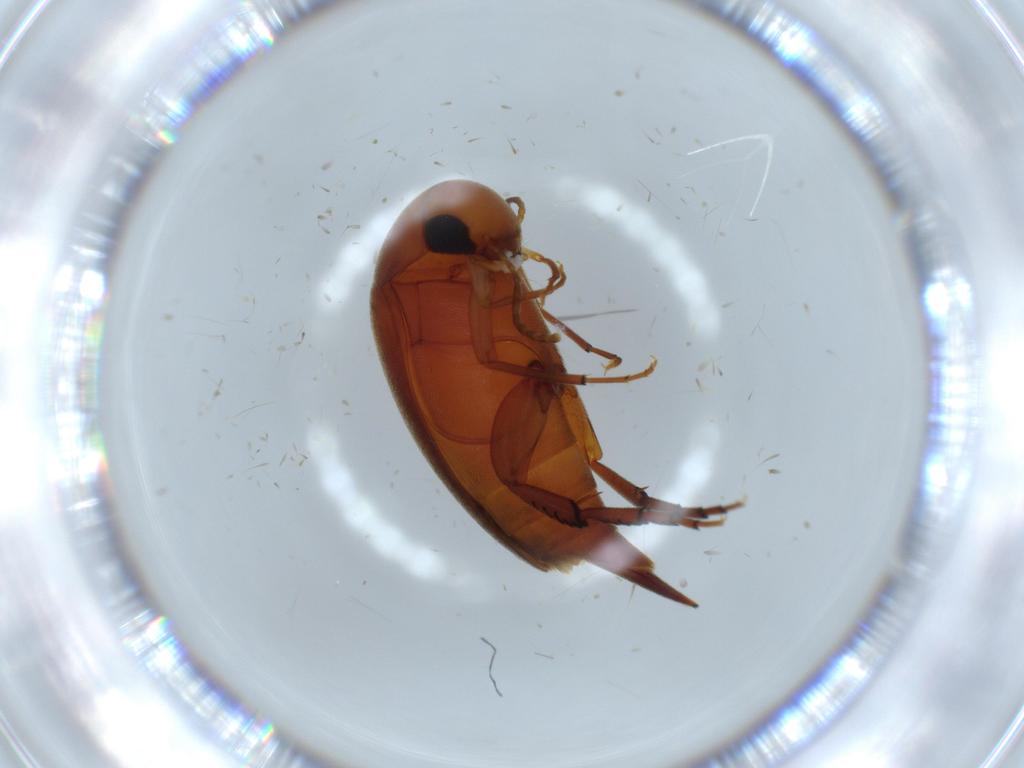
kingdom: Animalia
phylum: Arthropoda
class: Insecta
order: Coleoptera
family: Mordellidae
